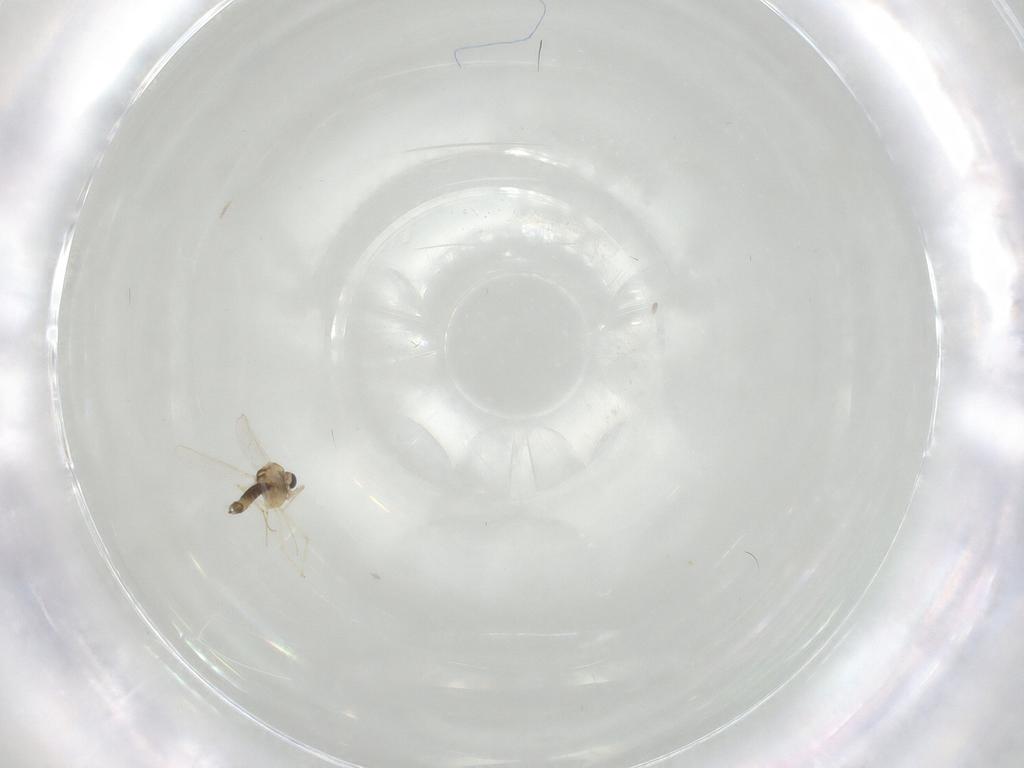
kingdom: Animalia
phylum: Arthropoda
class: Insecta
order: Diptera
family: Chironomidae
